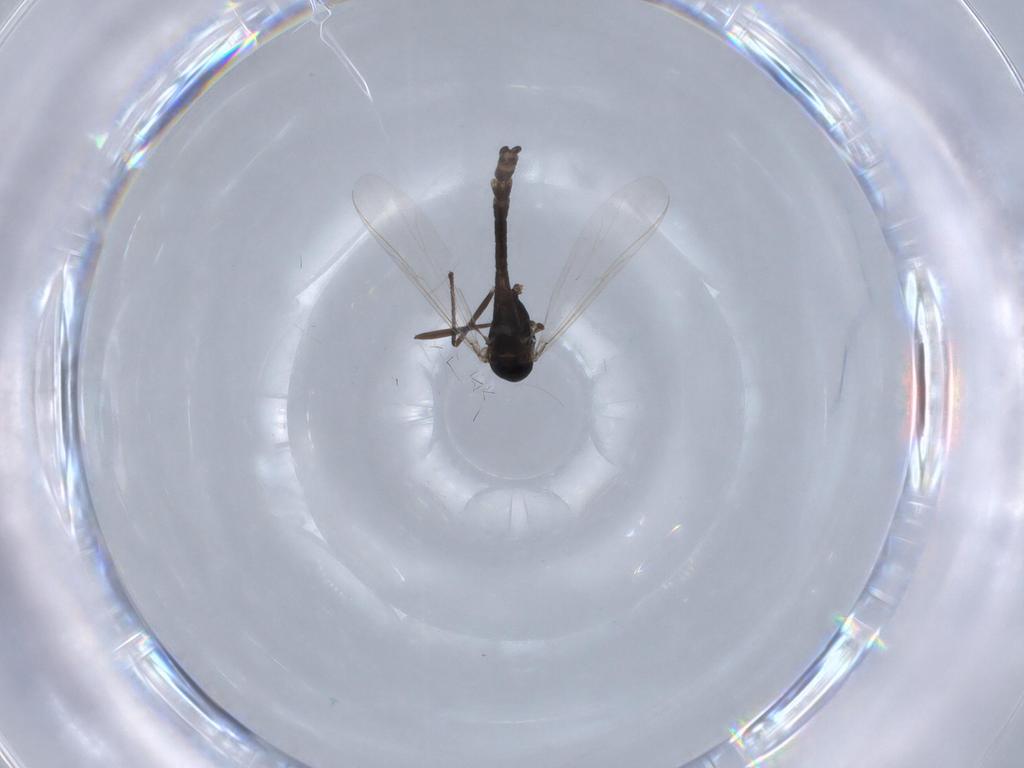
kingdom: Animalia
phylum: Arthropoda
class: Insecta
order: Diptera
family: Chironomidae
